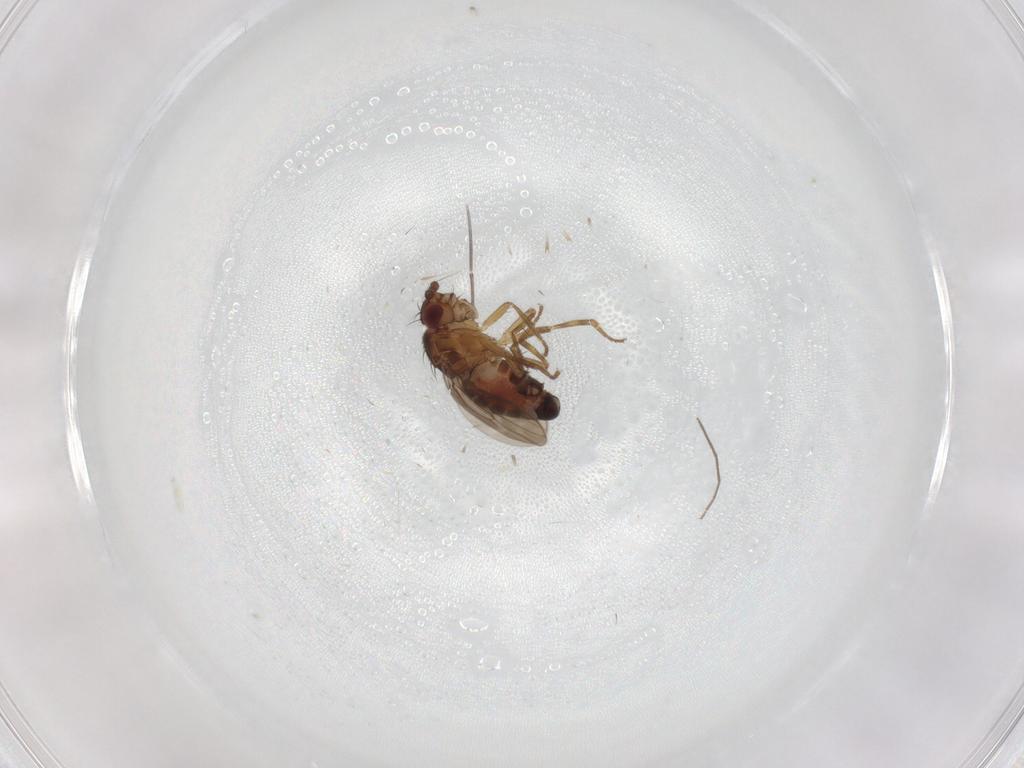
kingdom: Animalia
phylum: Arthropoda
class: Insecta
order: Diptera
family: Sphaeroceridae
